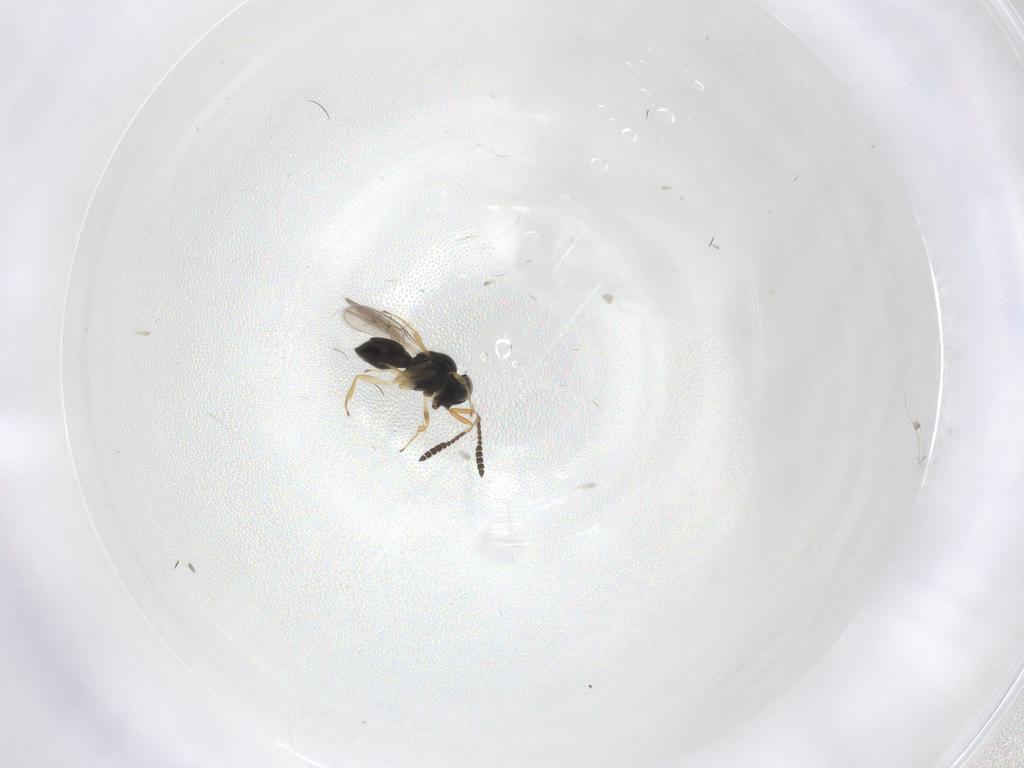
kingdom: Animalia
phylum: Arthropoda
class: Insecta
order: Hymenoptera
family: Scelionidae
